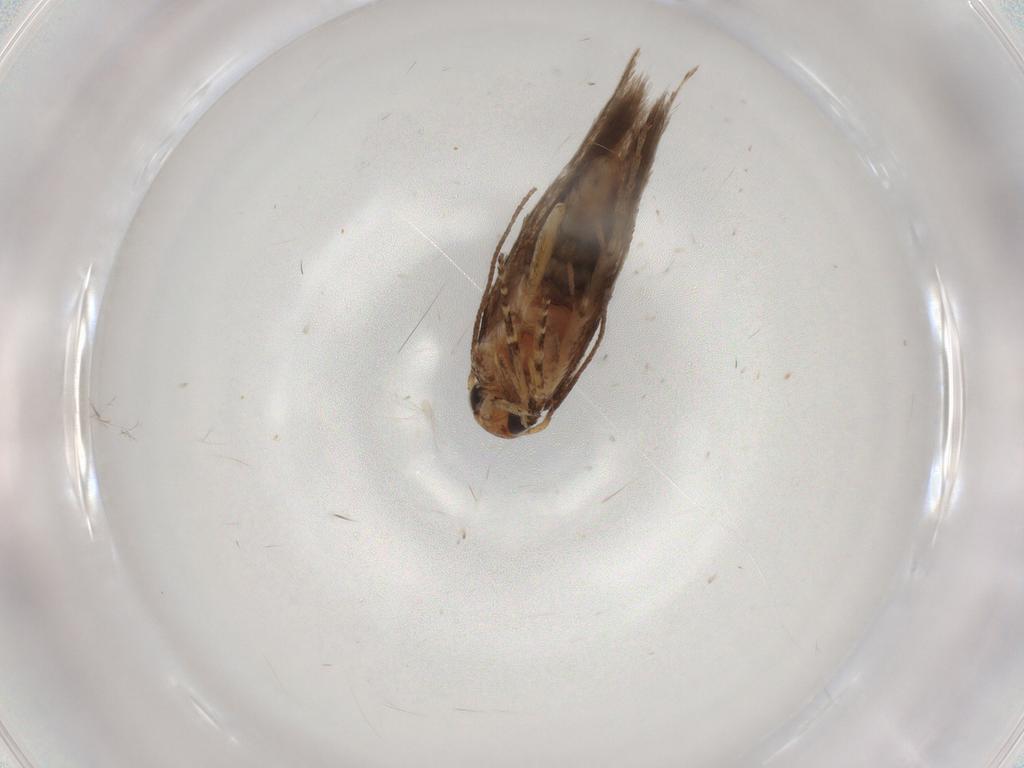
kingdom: Animalia
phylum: Arthropoda
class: Insecta
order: Lepidoptera
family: Gelechiidae
